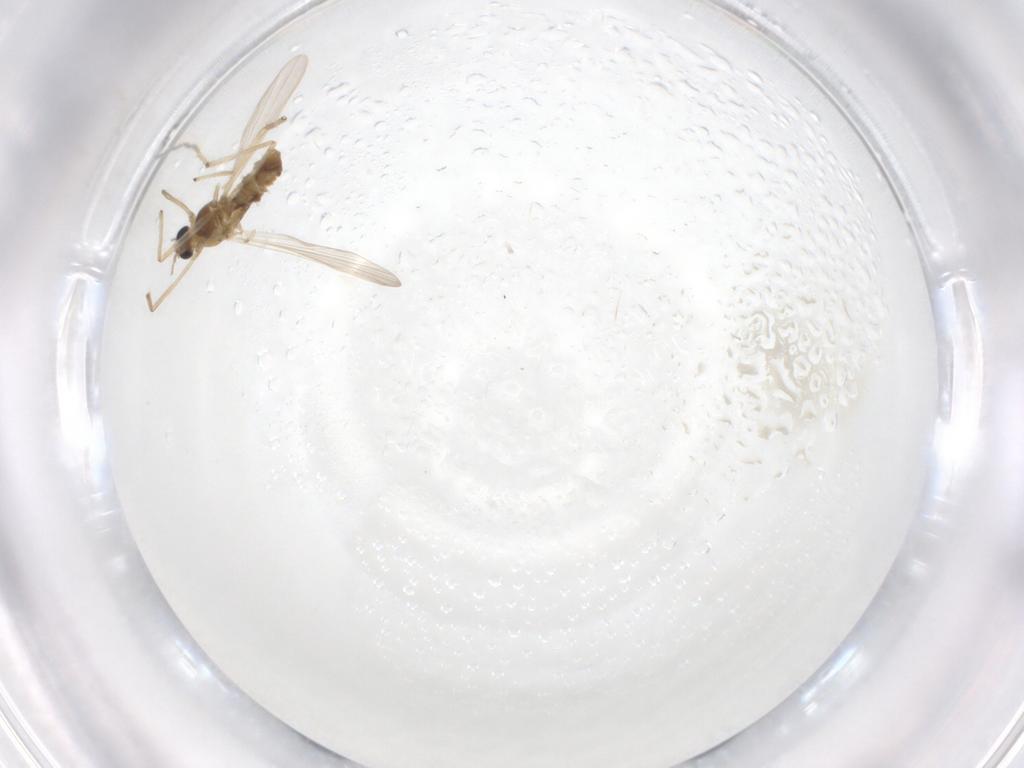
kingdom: Animalia
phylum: Arthropoda
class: Insecta
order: Diptera
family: Chironomidae
